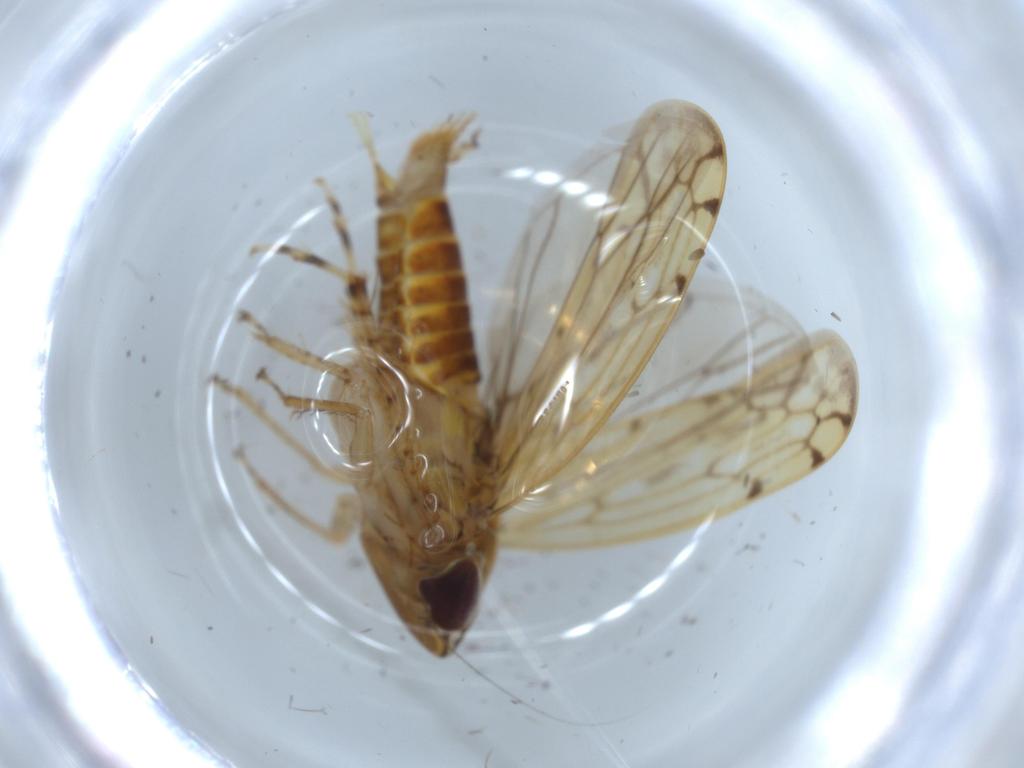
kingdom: Animalia
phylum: Arthropoda
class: Insecta
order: Hemiptera
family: Cicadellidae
